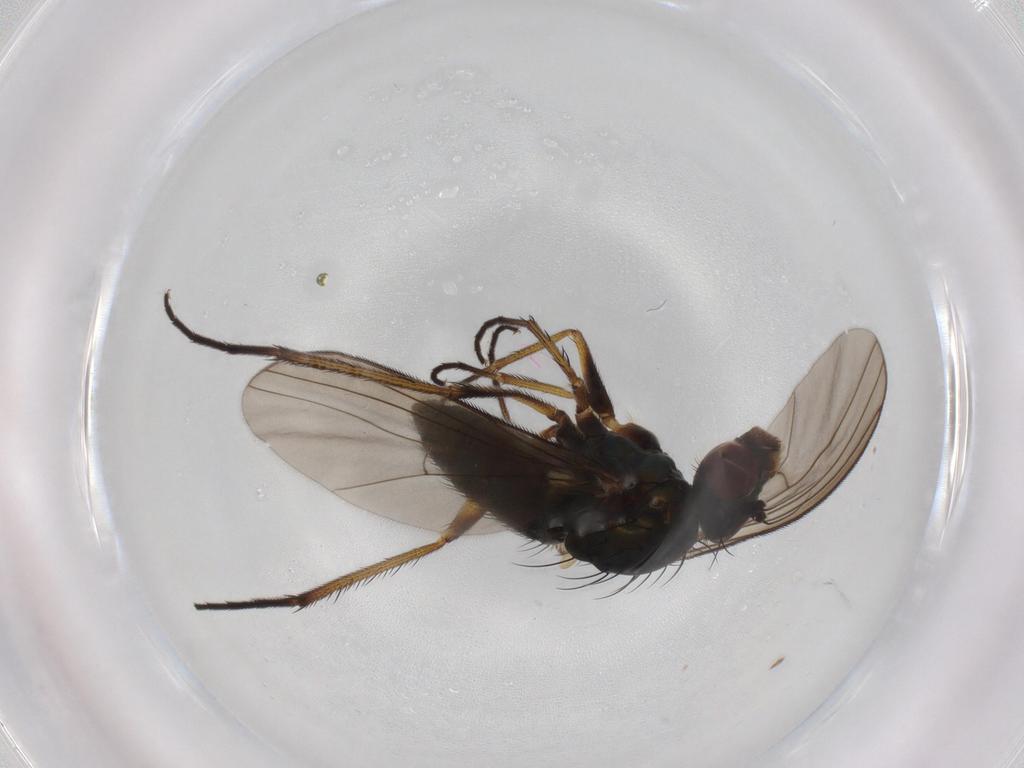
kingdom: Animalia
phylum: Arthropoda
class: Insecta
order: Diptera
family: Dolichopodidae
